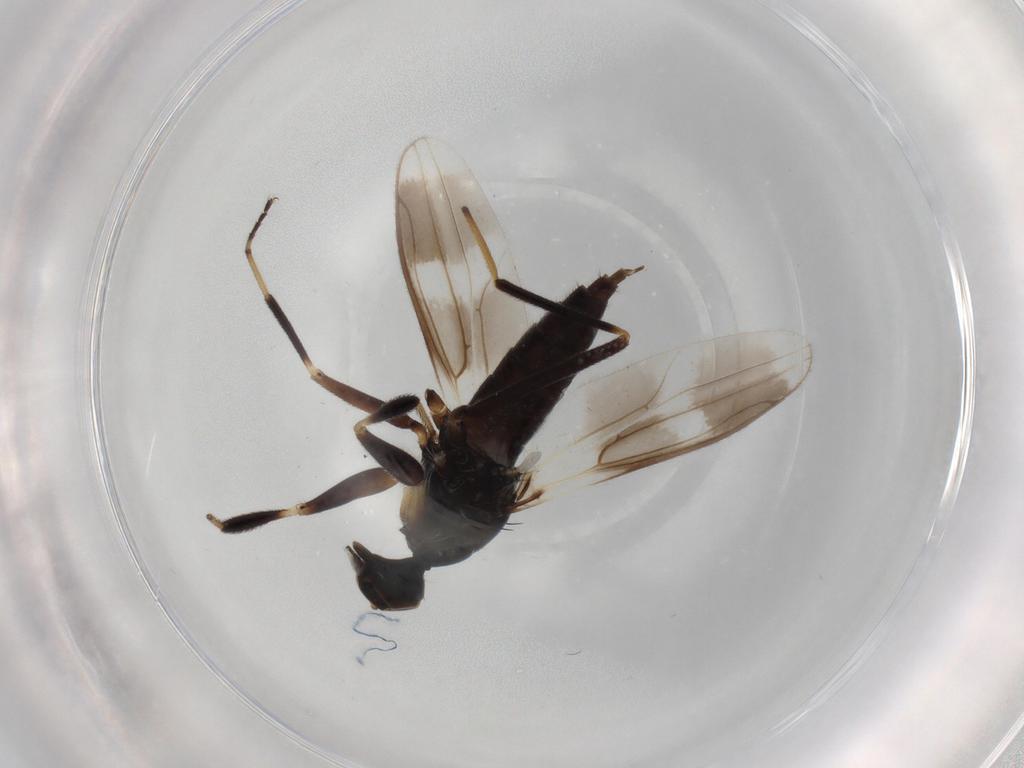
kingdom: Animalia
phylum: Arthropoda
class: Insecta
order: Diptera
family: Hybotidae
